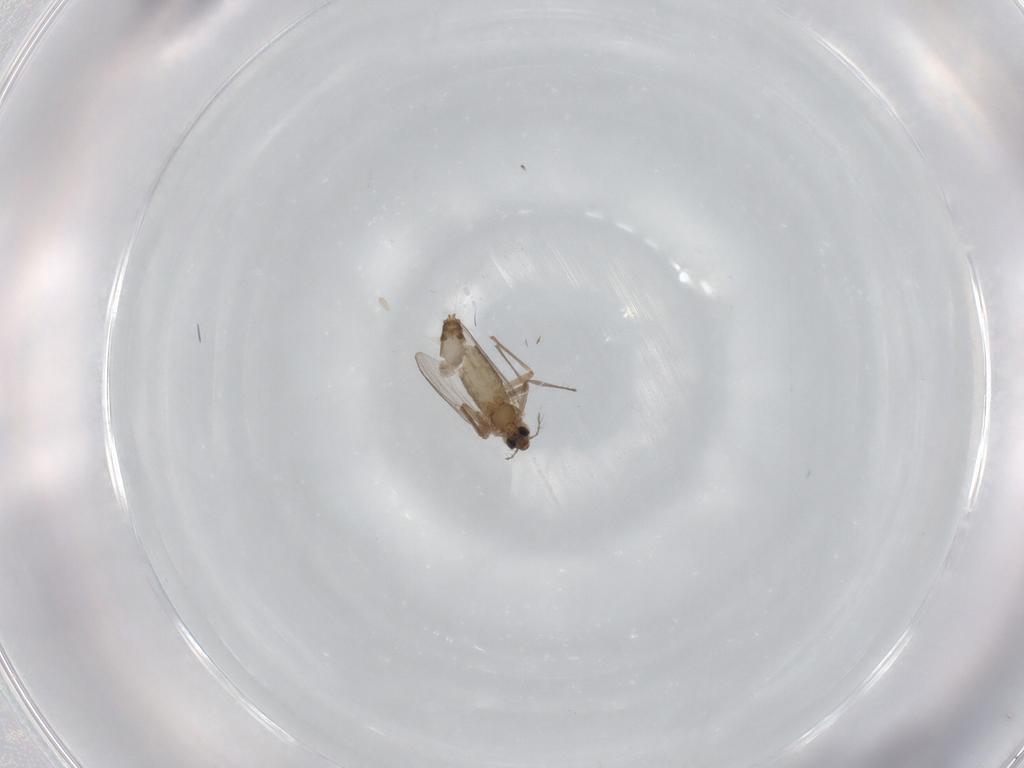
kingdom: Animalia
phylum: Arthropoda
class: Insecta
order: Diptera
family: Chironomidae
